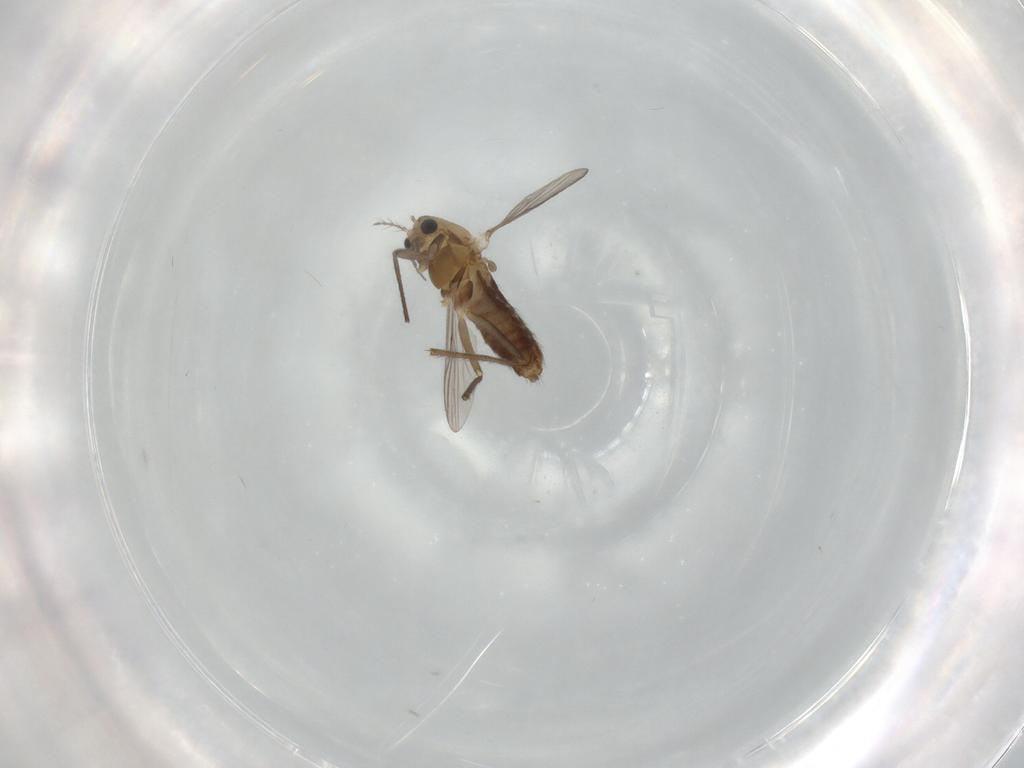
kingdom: Animalia
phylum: Arthropoda
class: Insecta
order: Diptera
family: Chironomidae
